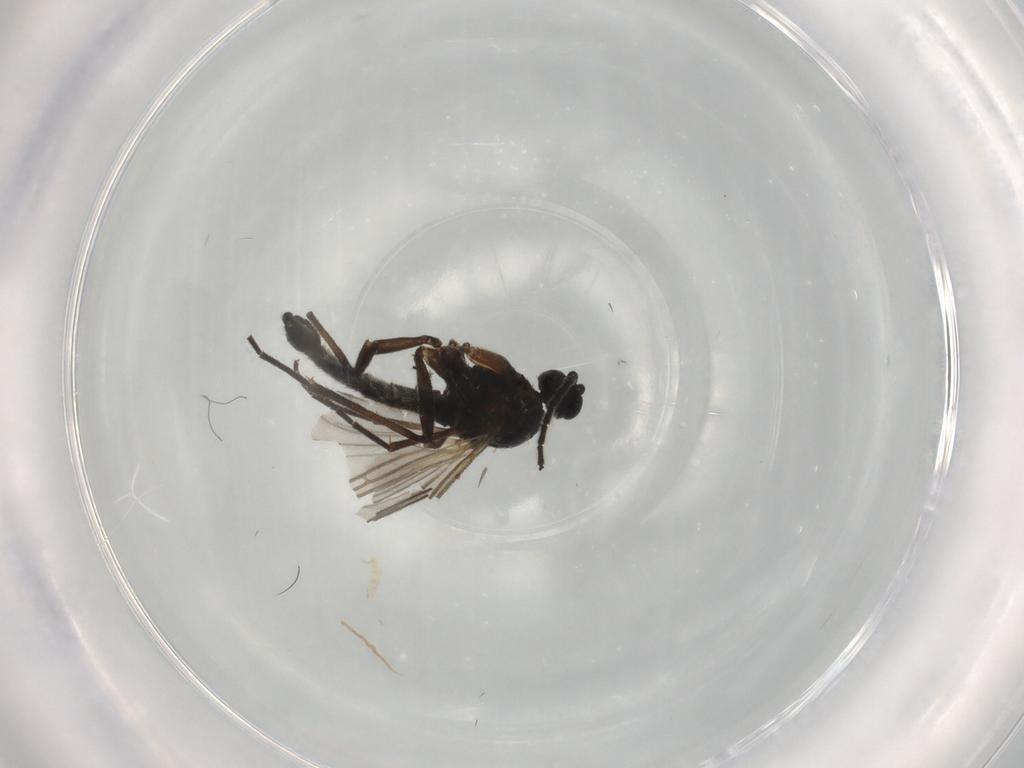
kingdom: Animalia
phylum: Arthropoda
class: Insecta
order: Diptera
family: Sciaridae
